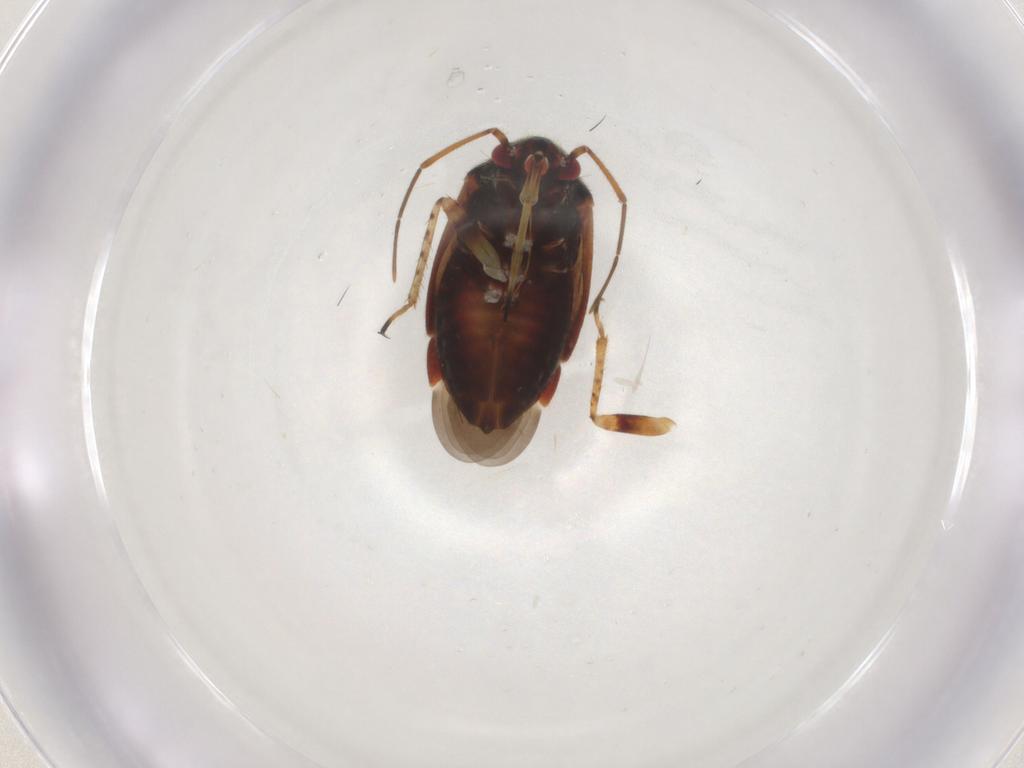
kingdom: Animalia
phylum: Arthropoda
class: Insecta
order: Hemiptera
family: Miridae
